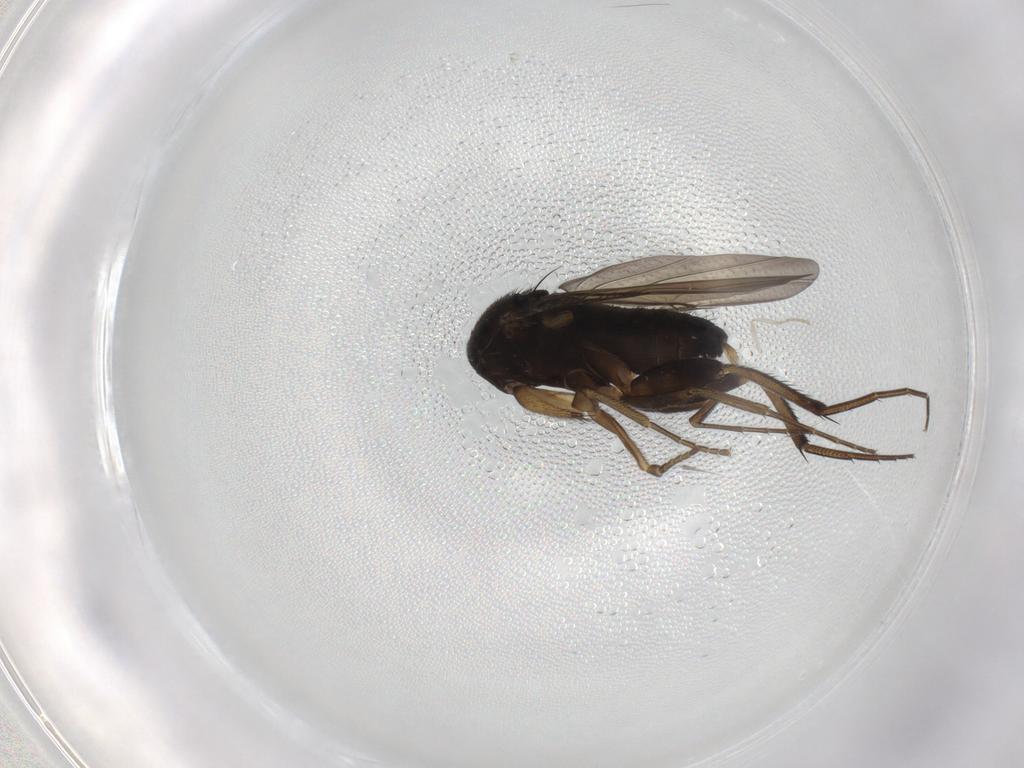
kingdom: Animalia
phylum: Arthropoda
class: Insecta
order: Diptera
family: Phoridae
